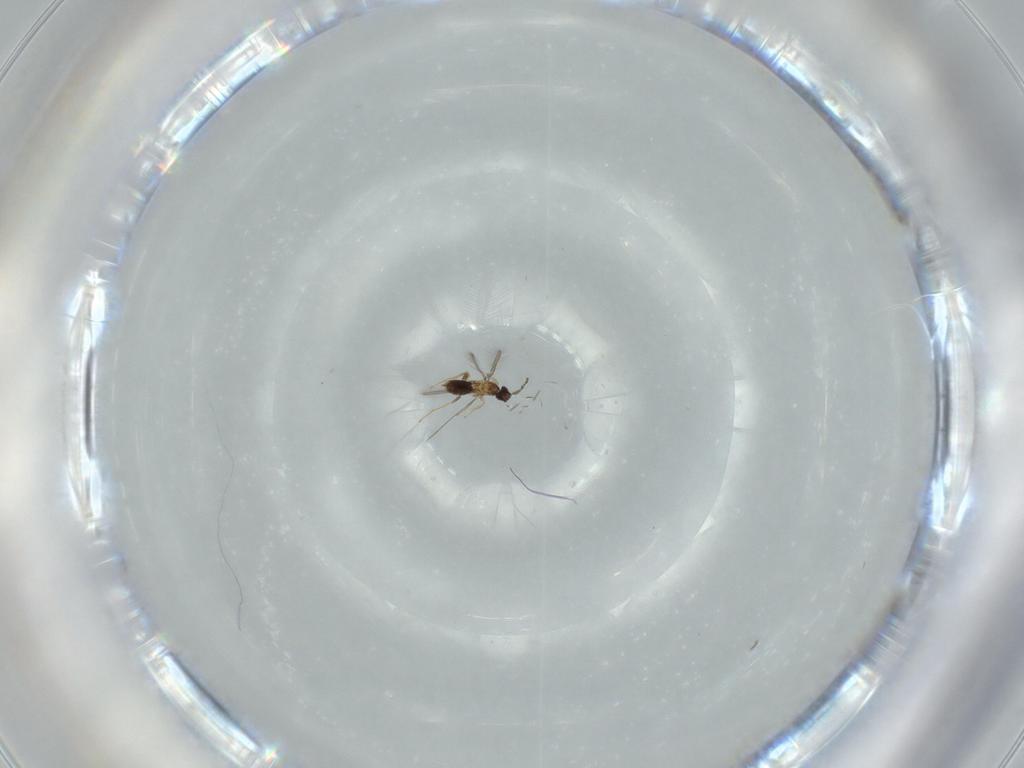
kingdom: Animalia
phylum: Arthropoda
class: Insecta
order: Hymenoptera
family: Mymaridae
